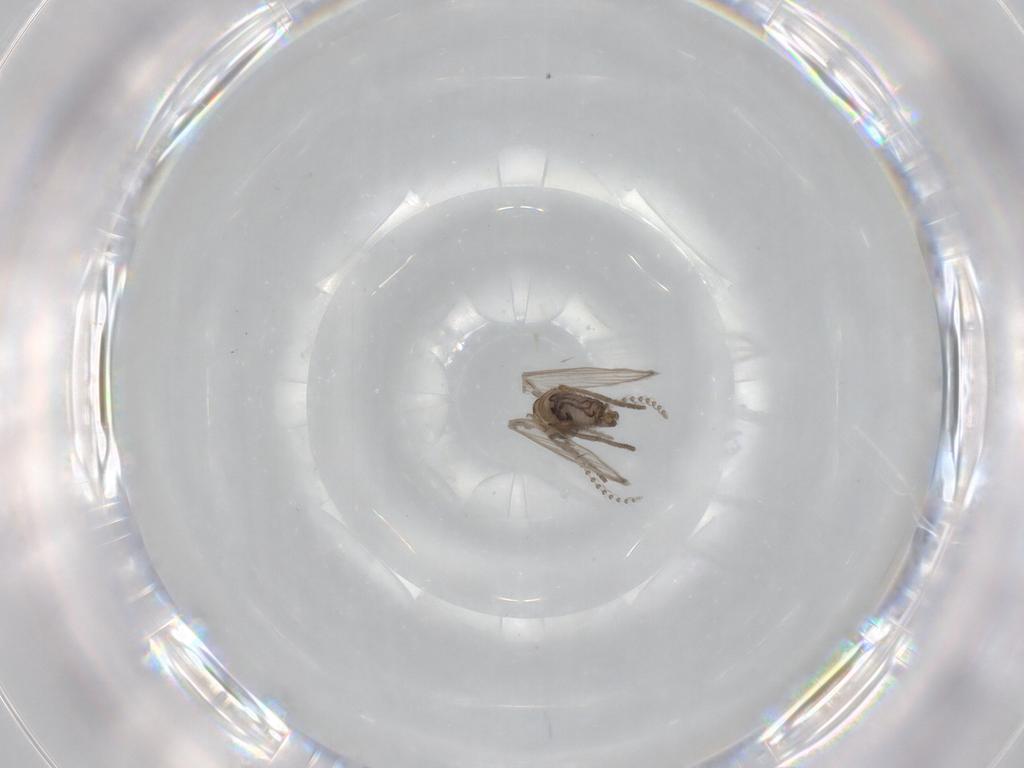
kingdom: Animalia
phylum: Arthropoda
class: Insecta
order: Diptera
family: Psychodidae
